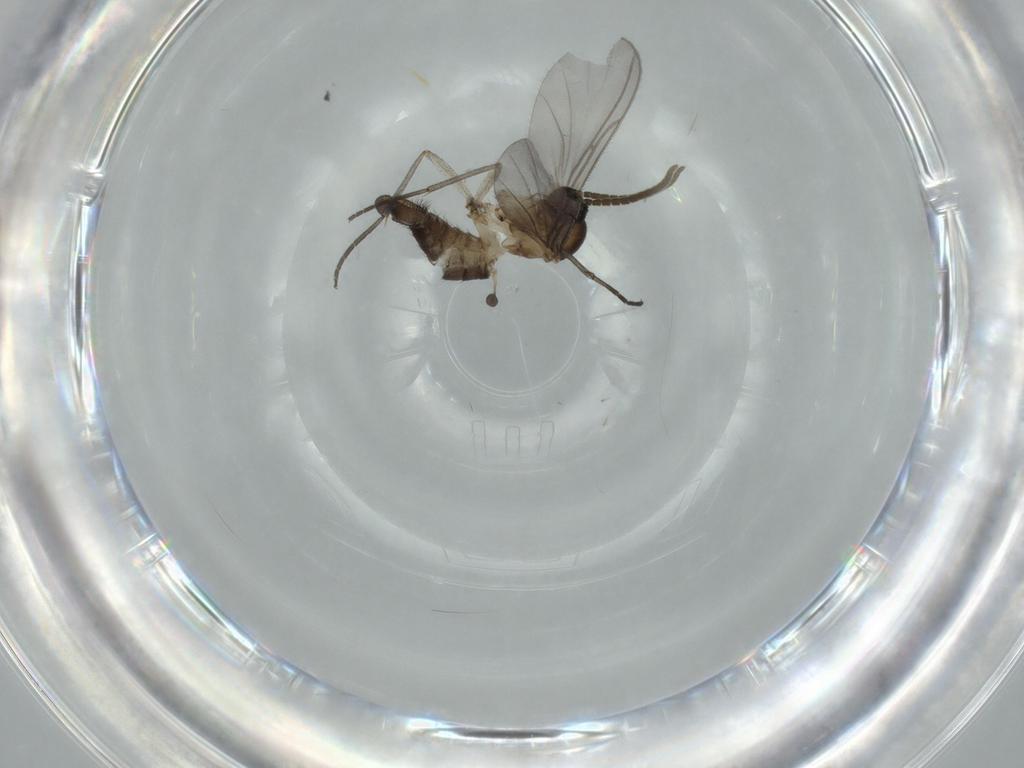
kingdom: Animalia
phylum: Arthropoda
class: Insecta
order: Diptera
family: Sciaridae
